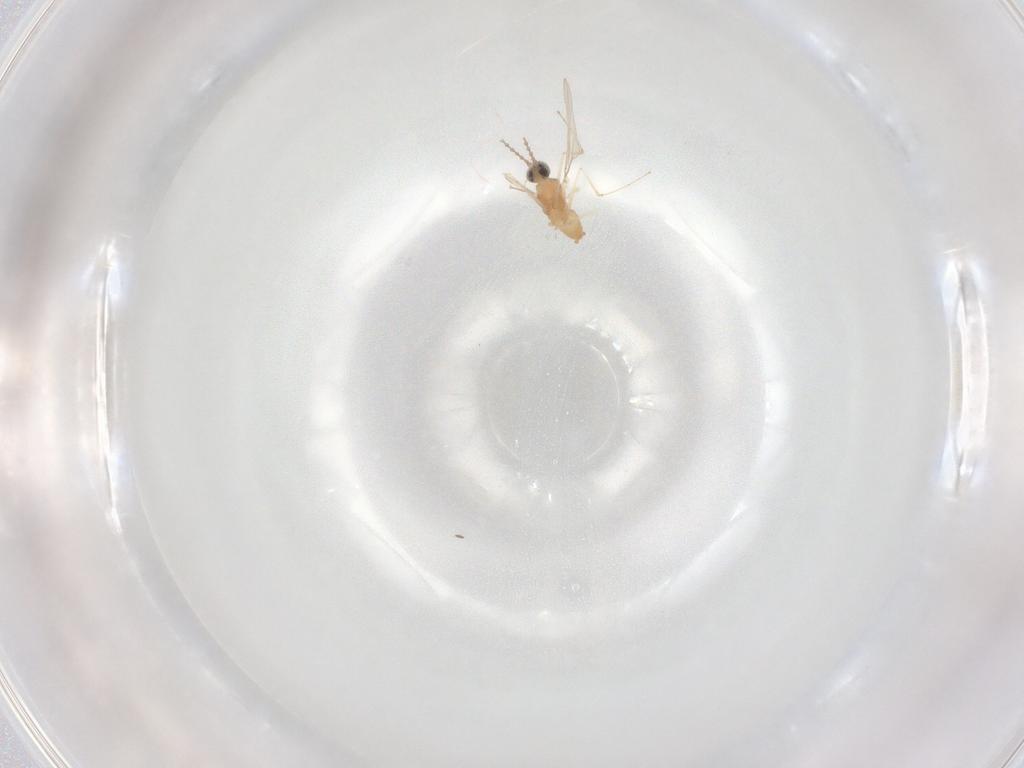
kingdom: Animalia
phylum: Arthropoda
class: Insecta
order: Diptera
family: Cecidomyiidae
